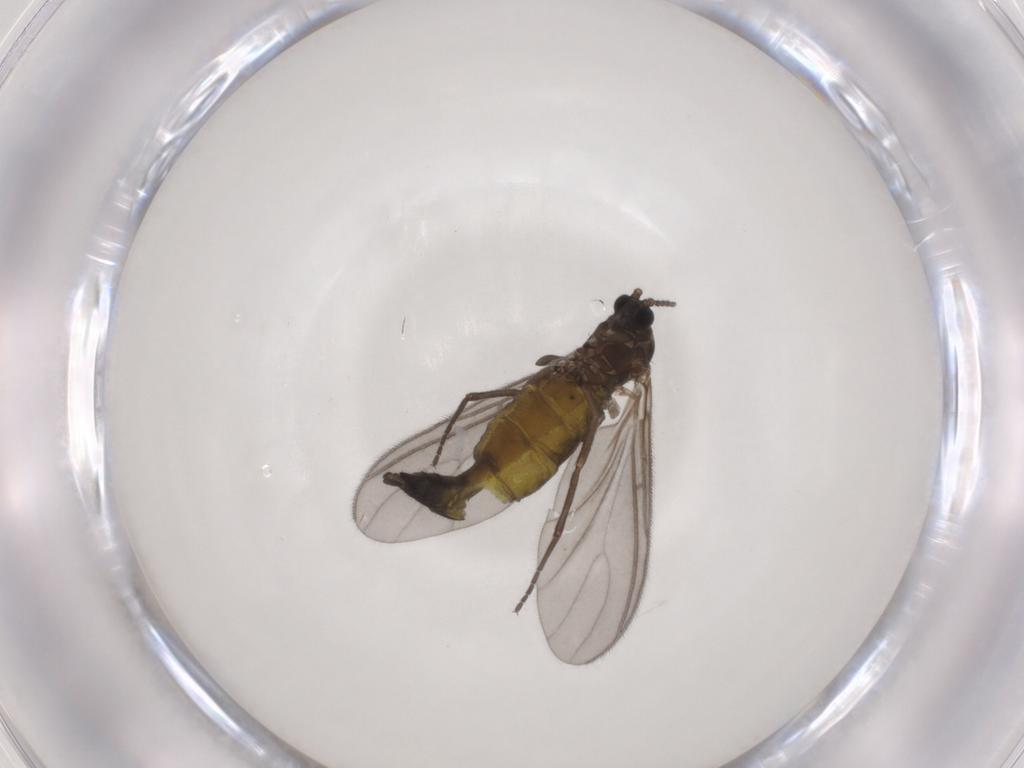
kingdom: Animalia
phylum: Arthropoda
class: Insecta
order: Diptera
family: Sciaridae
